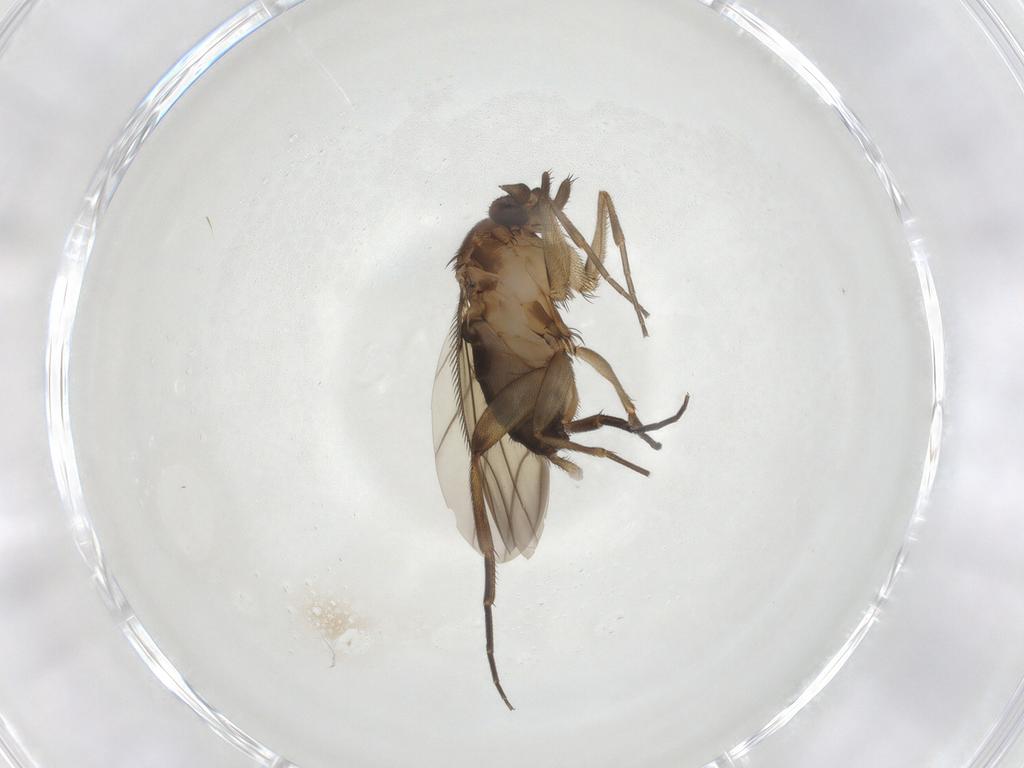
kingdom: Animalia
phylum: Arthropoda
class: Insecta
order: Diptera
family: Phoridae
